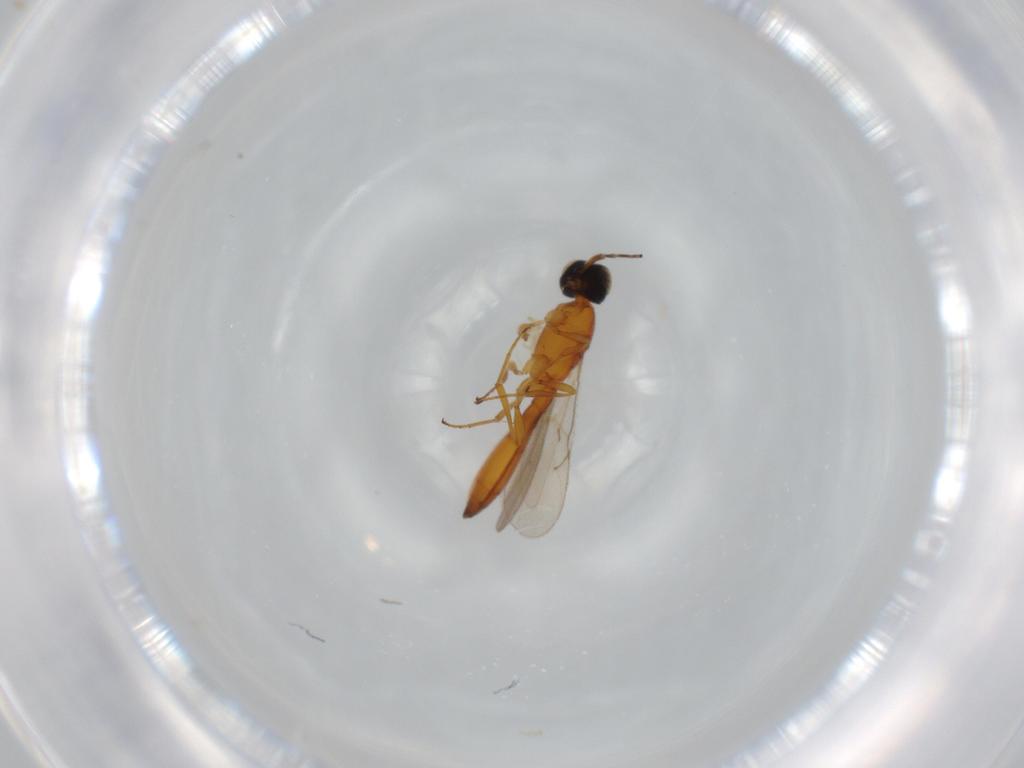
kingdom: Animalia
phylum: Arthropoda
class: Insecta
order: Hymenoptera
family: Scelionidae
